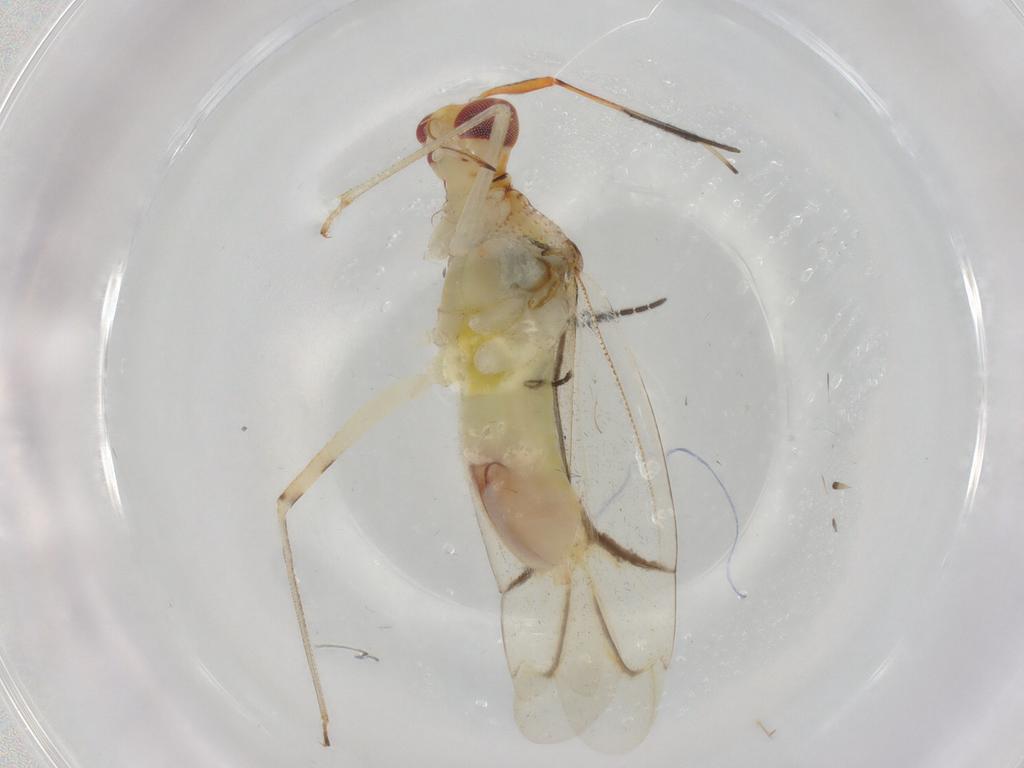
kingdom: Animalia
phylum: Arthropoda
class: Insecta
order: Hemiptera
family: Miridae
